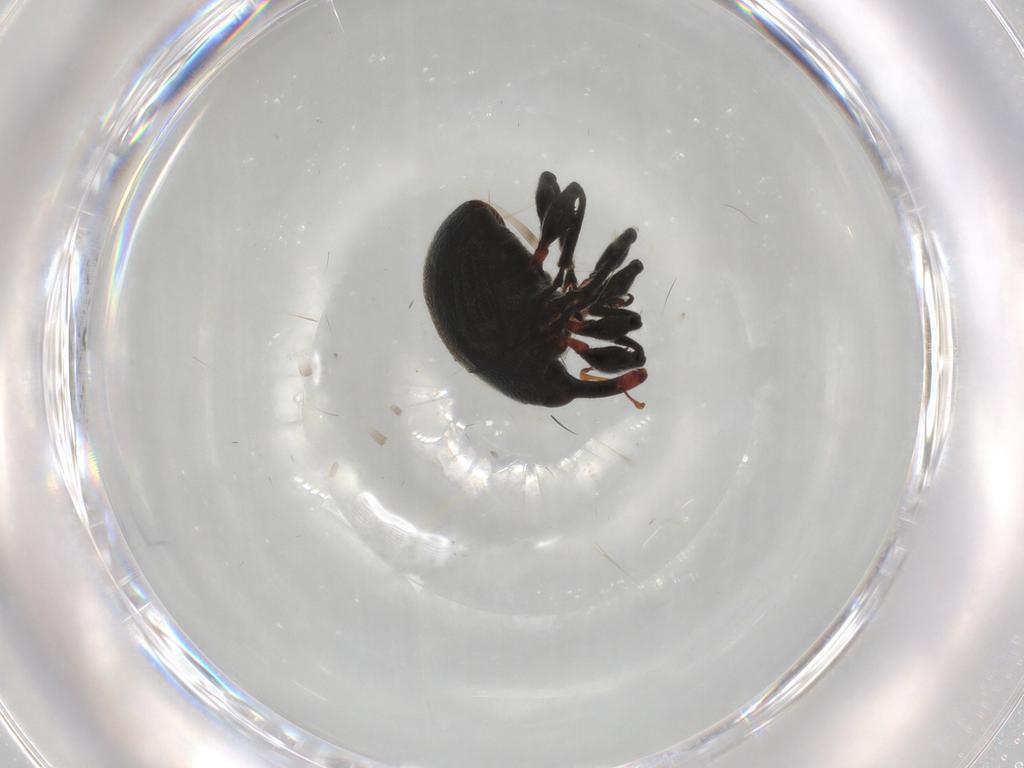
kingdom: Animalia
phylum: Arthropoda
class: Insecta
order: Coleoptera
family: Brentidae
